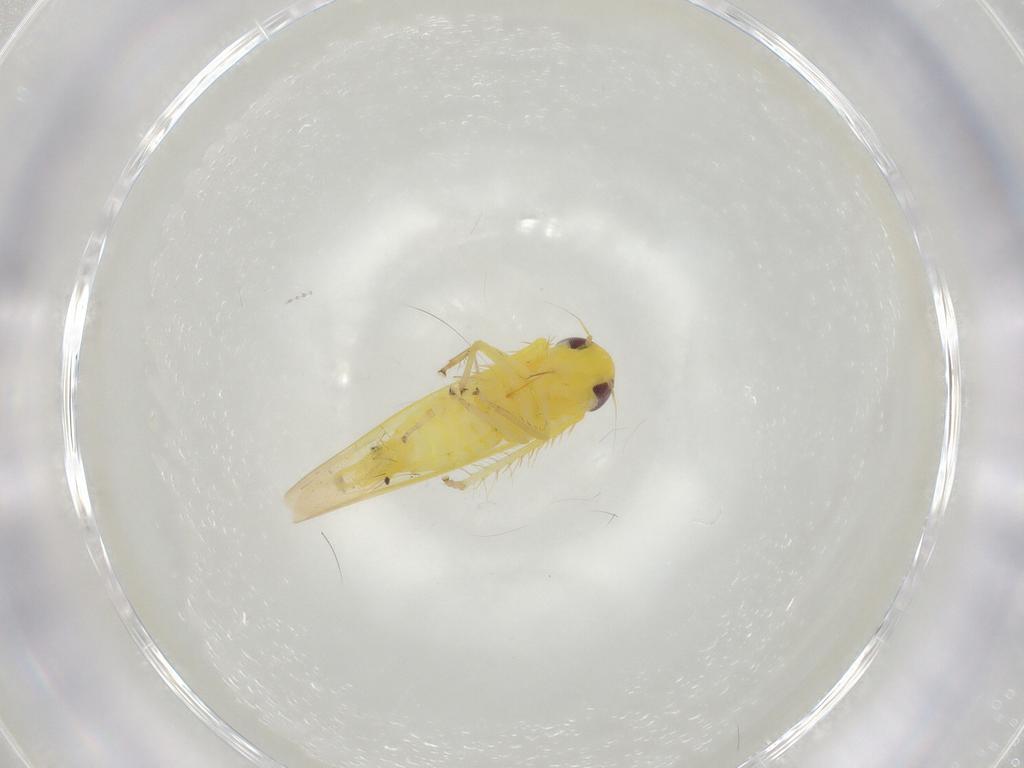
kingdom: Animalia
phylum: Arthropoda
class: Insecta
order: Hemiptera
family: Cicadellidae
